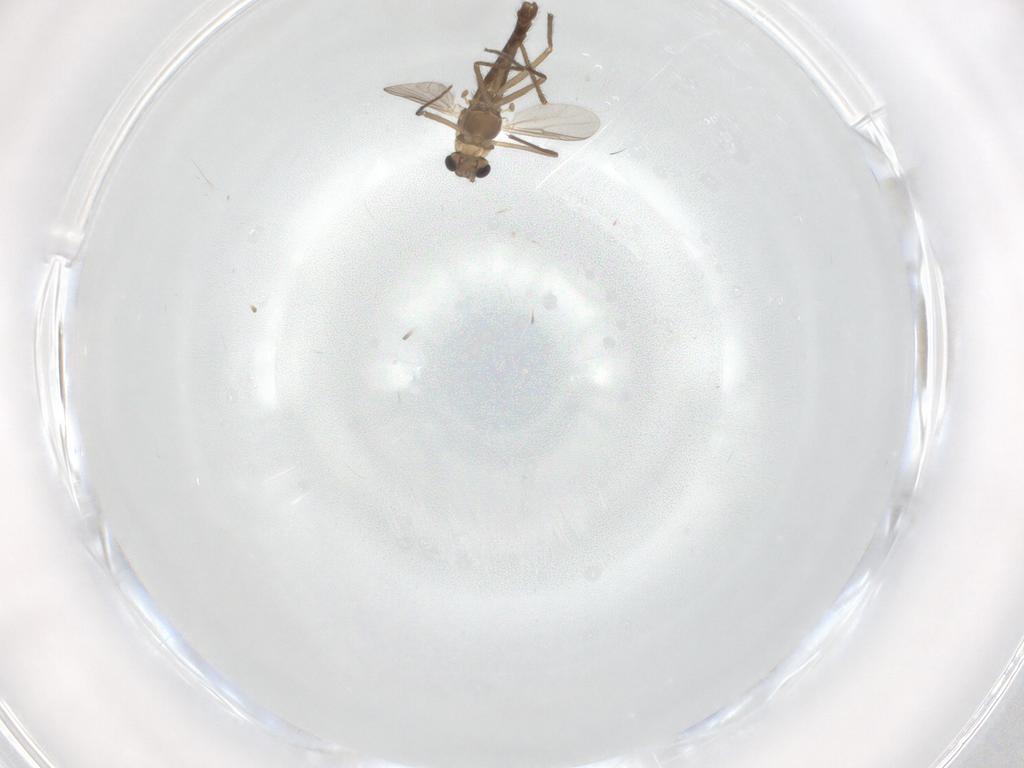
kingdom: Animalia
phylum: Arthropoda
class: Insecta
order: Diptera
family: Chironomidae
